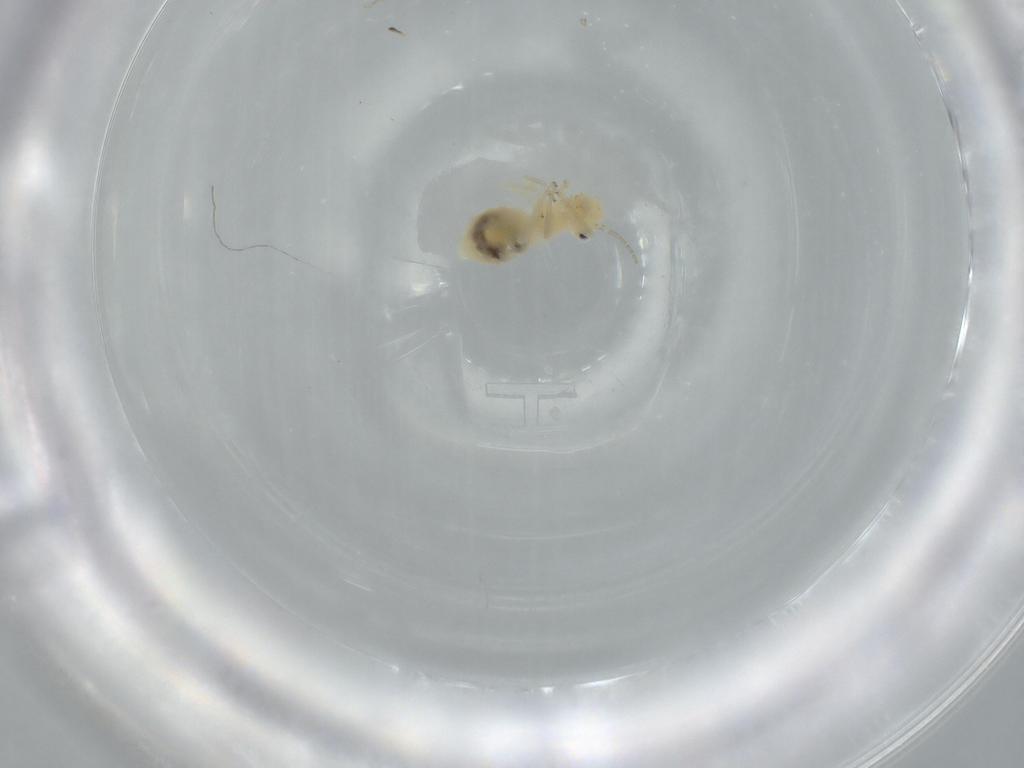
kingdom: Animalia
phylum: Arthropoda
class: Insecta
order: Psocodea
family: Caeciliusidae
